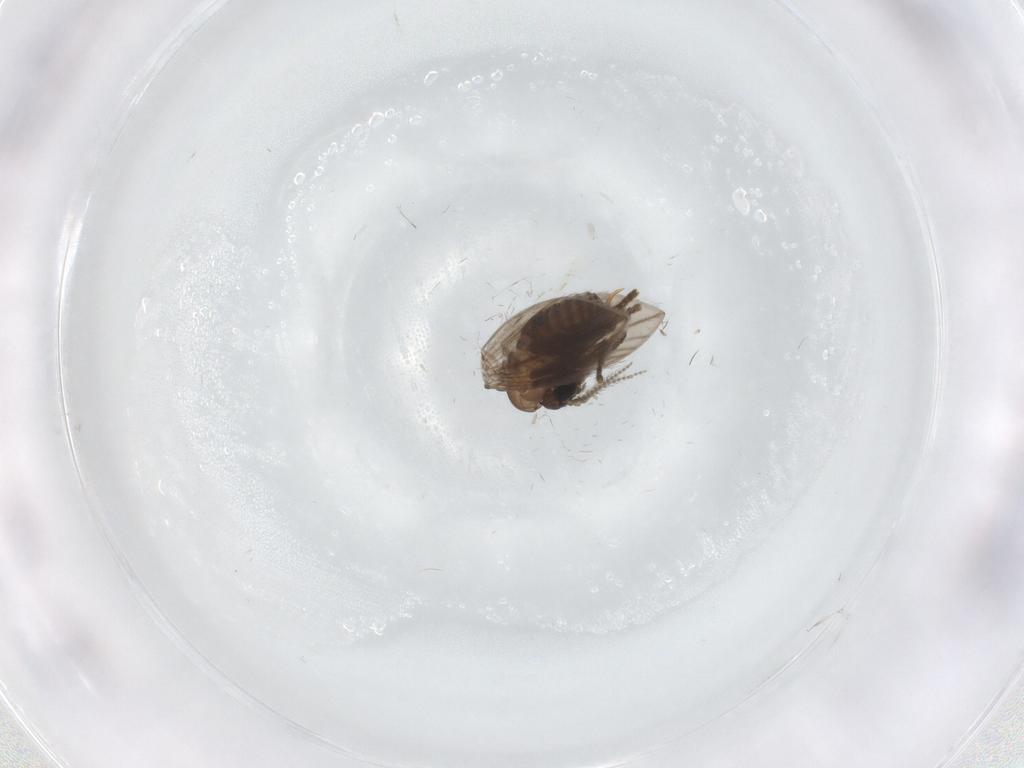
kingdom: Animalia
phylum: Arthropoda
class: Insecta
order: Diptera
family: Psychodidae
